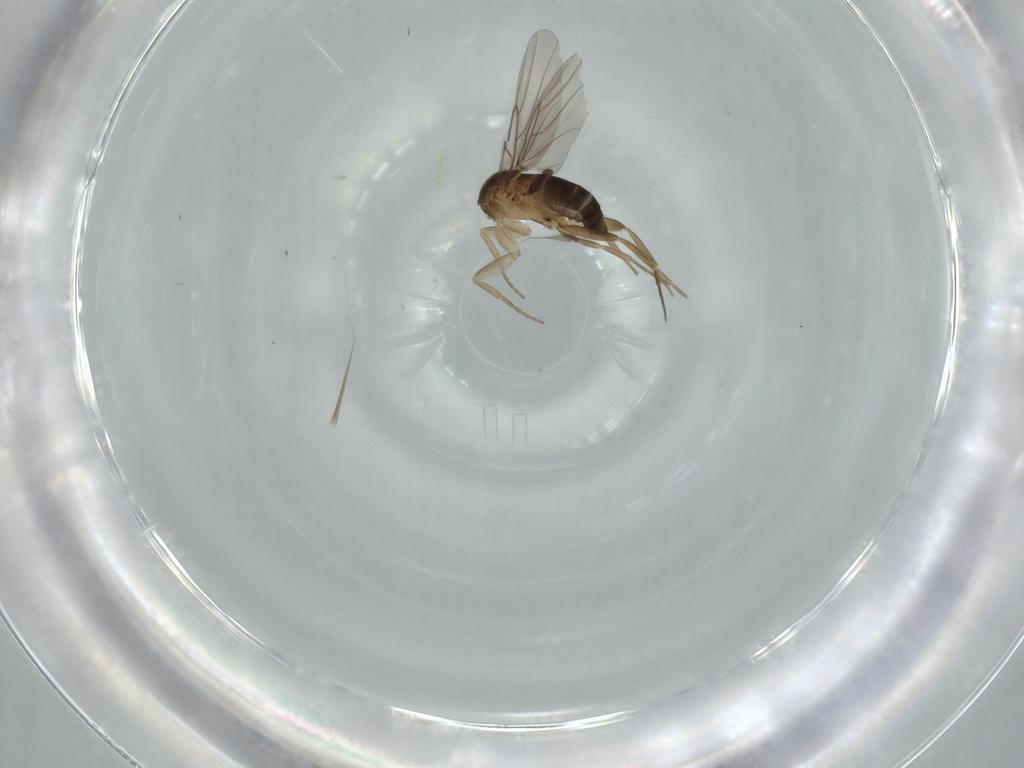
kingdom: Animalia
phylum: Arthropoda
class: Insecta
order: Diptera
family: Phoridae
